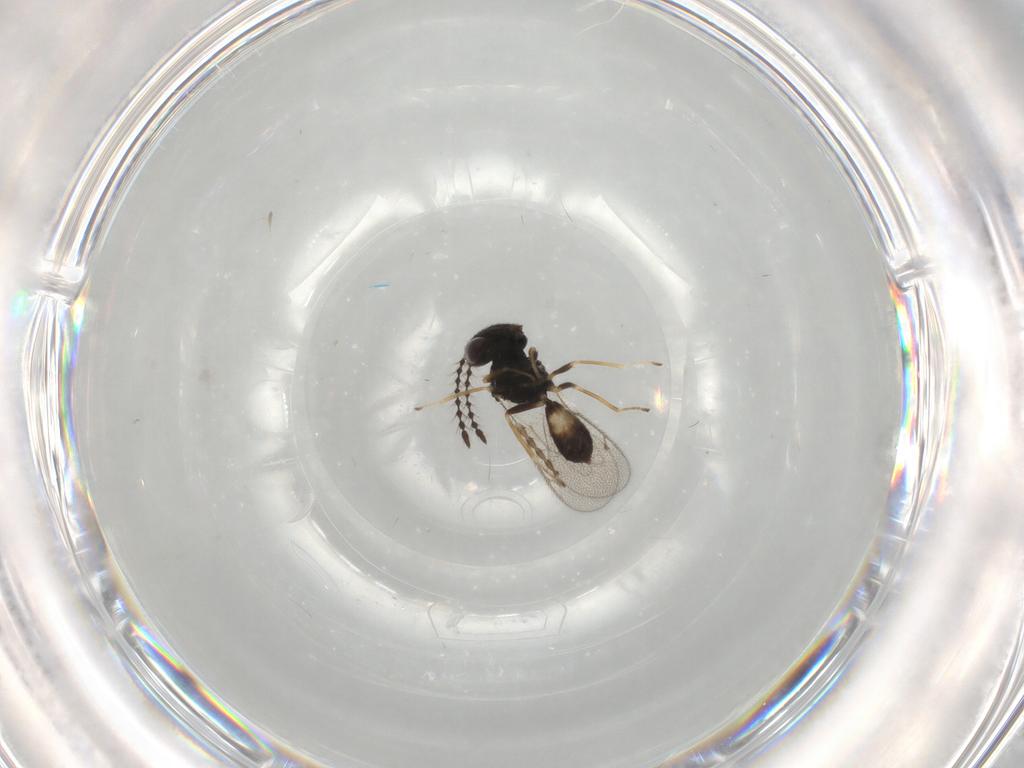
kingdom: Animalia
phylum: Arthropoda
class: Insecta
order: Hymenoptera
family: Pteromalidae
